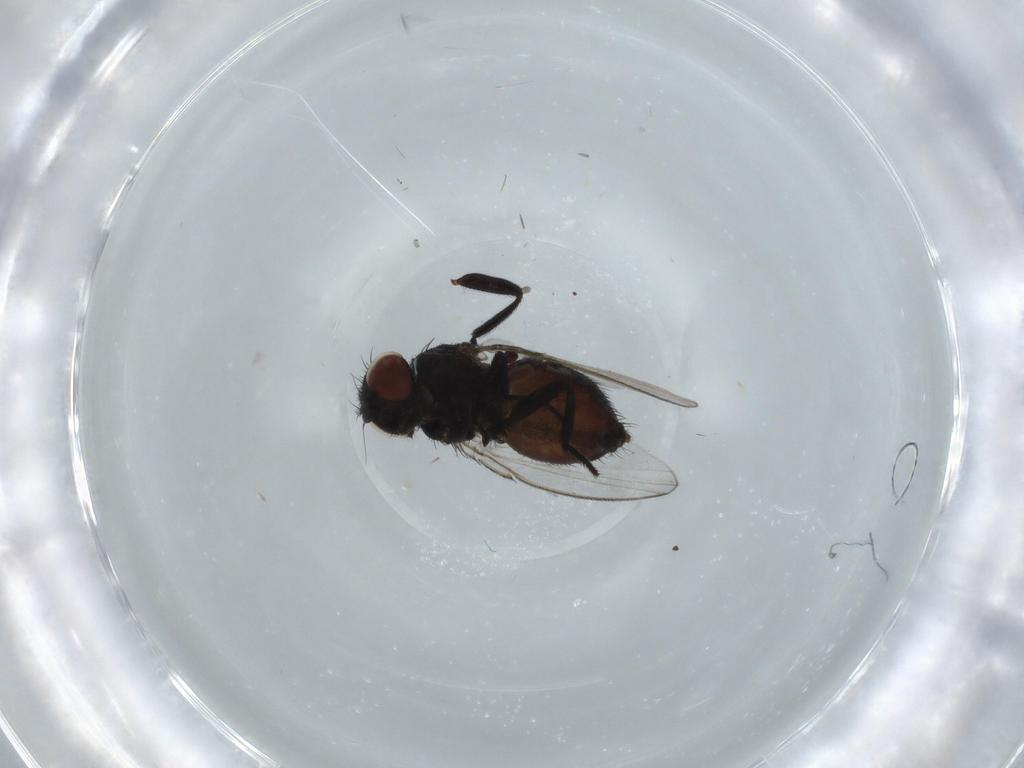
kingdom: Animalia
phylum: Arthropoda
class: Insecta
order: Diptera
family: Milichiidae
